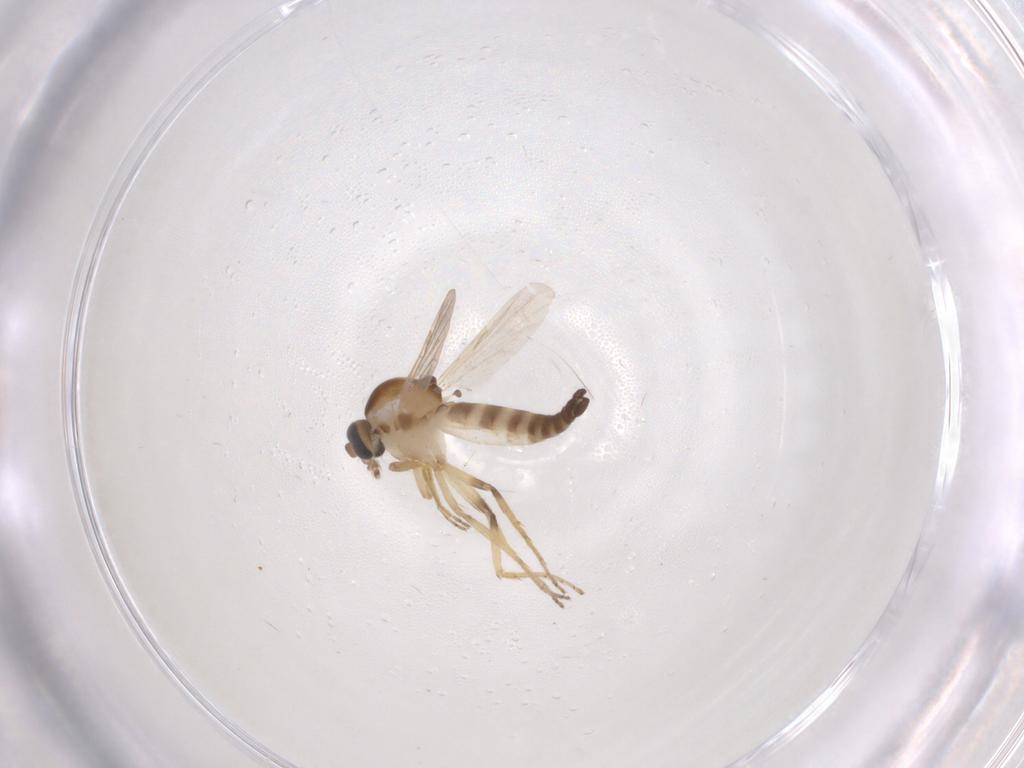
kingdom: Animalia
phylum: Arthropoda
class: Insecta
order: Diptera
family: Ceratopogonidae
